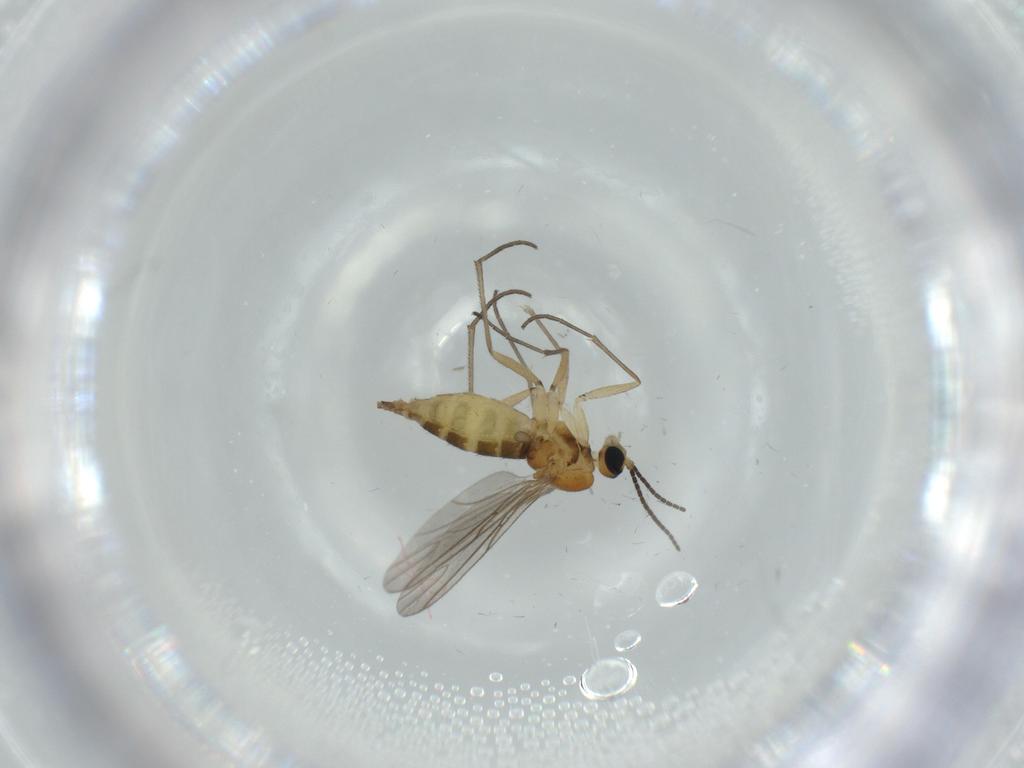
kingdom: Animalia
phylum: Arthropoda
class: Insecta
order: Diptera
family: Sciaridae
